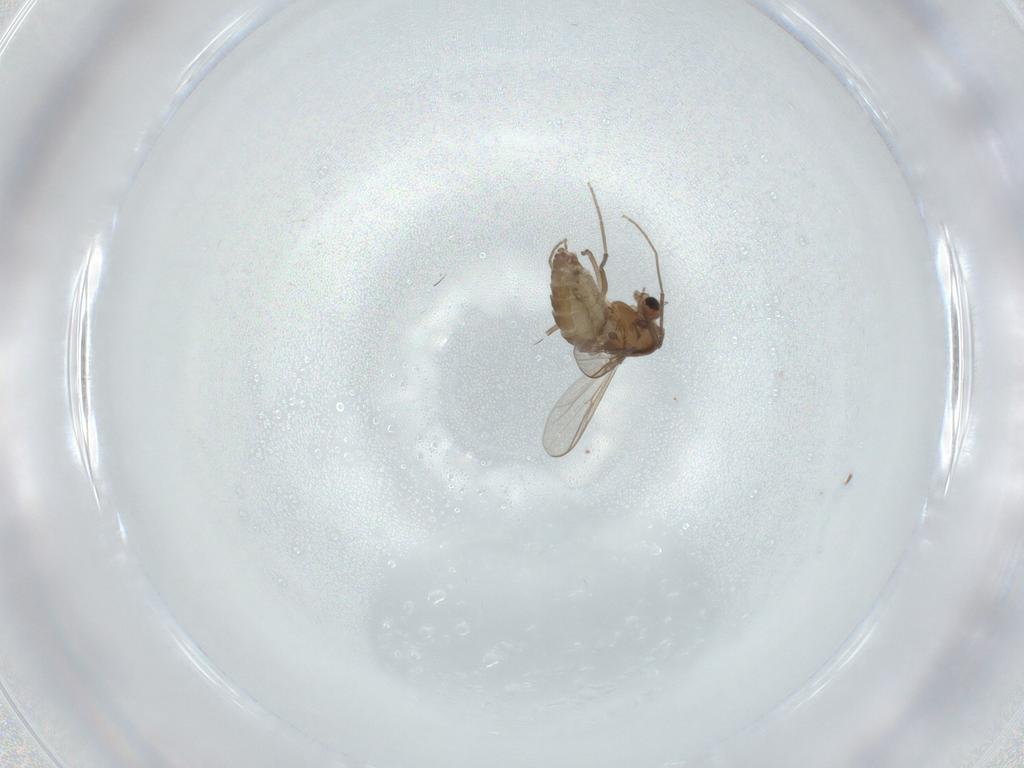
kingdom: Animalia
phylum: Arthropoda
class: Insecta
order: Diptera
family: Chironomidae
